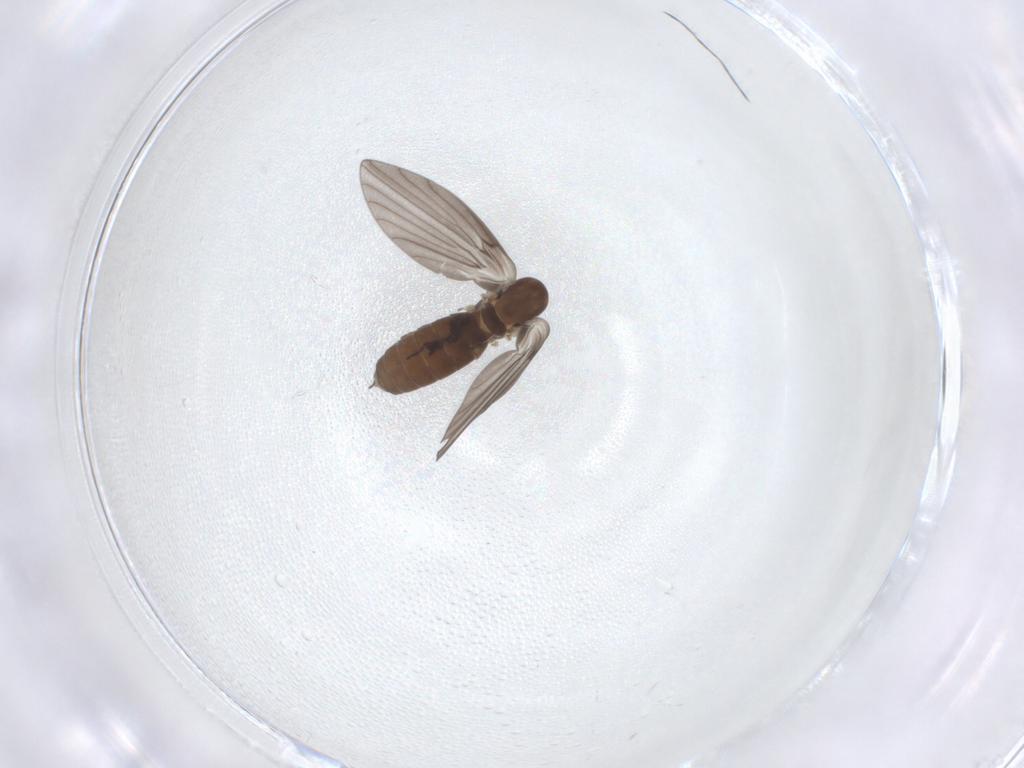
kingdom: Animalia
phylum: Arthropoda
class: Insecta
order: Diptera
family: Psychodidae
